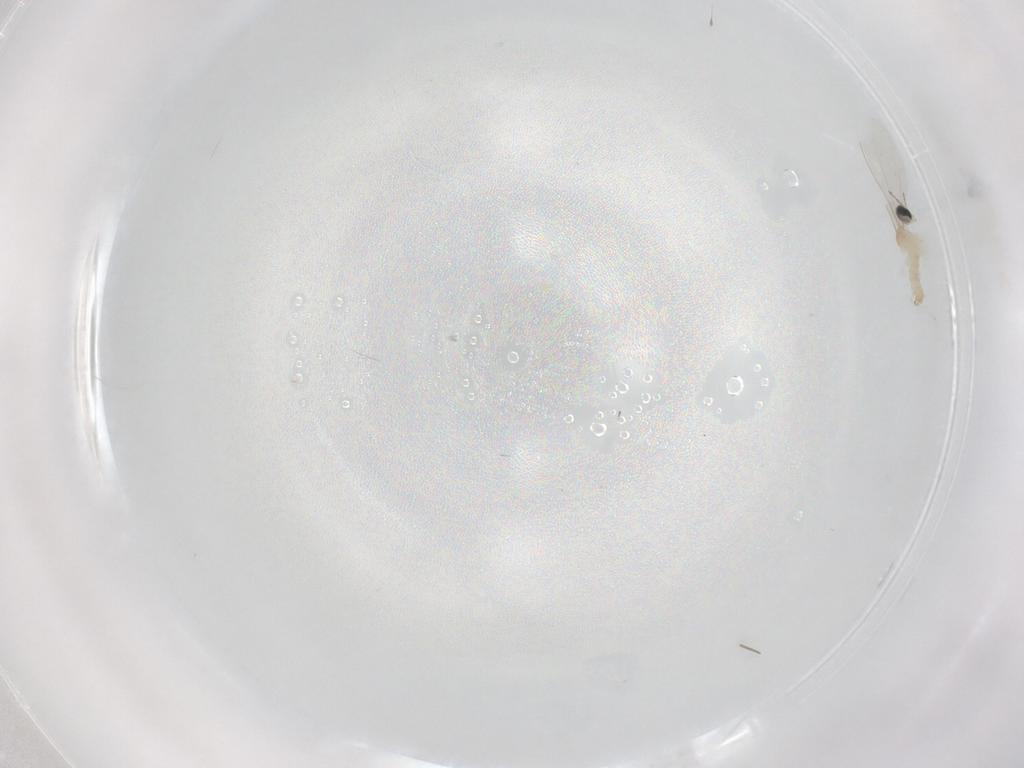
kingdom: Animalia
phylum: Arthropoda
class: Insecta
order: Diptera
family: Cecidomyiidae
